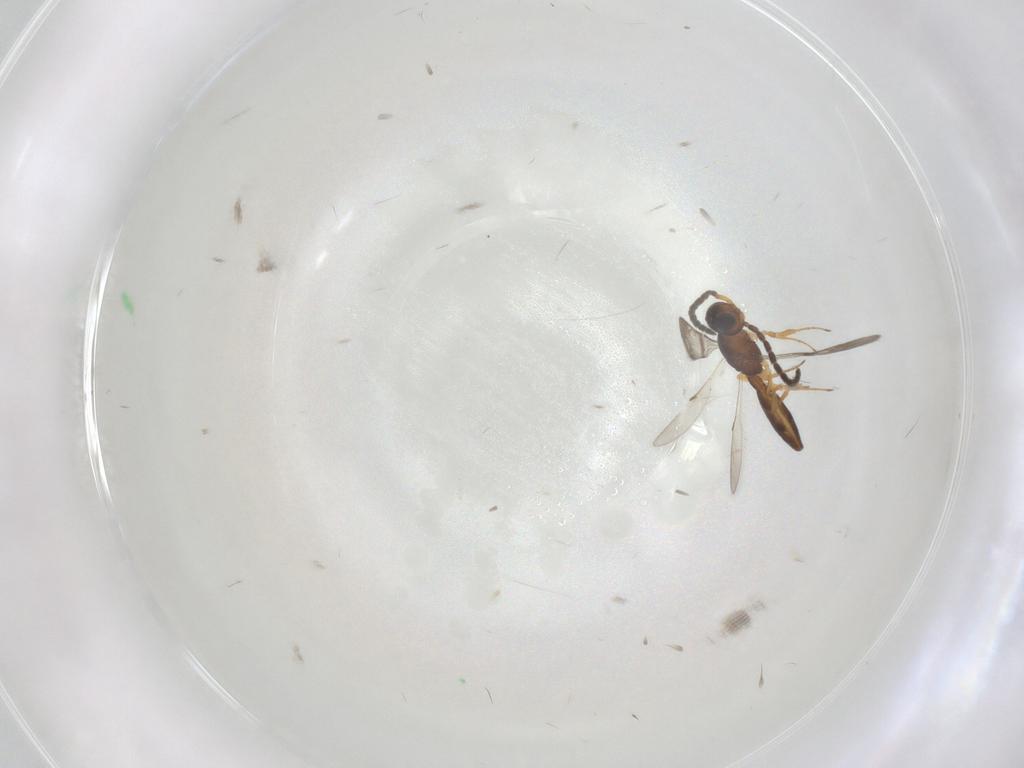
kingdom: Animalia
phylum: Arthropoda
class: Insecta
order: Hymenoptera
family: Scelionidae
